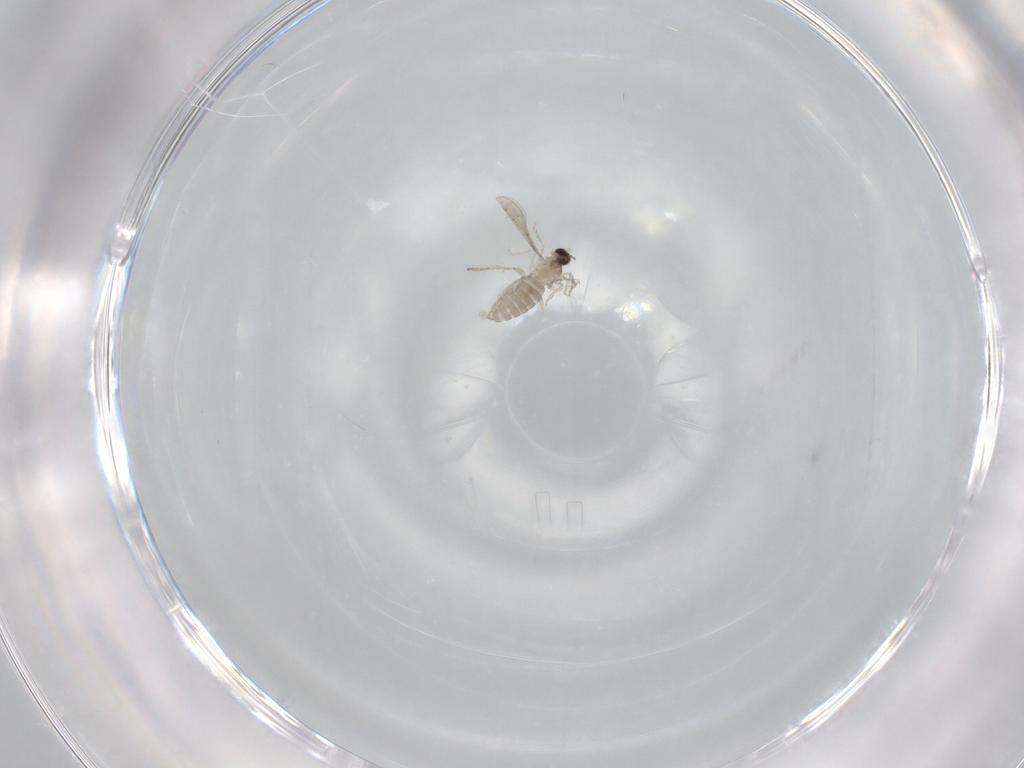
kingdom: Animalia
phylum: Arthropoda
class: Insecta
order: Diptera
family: Cecidomyiidae
